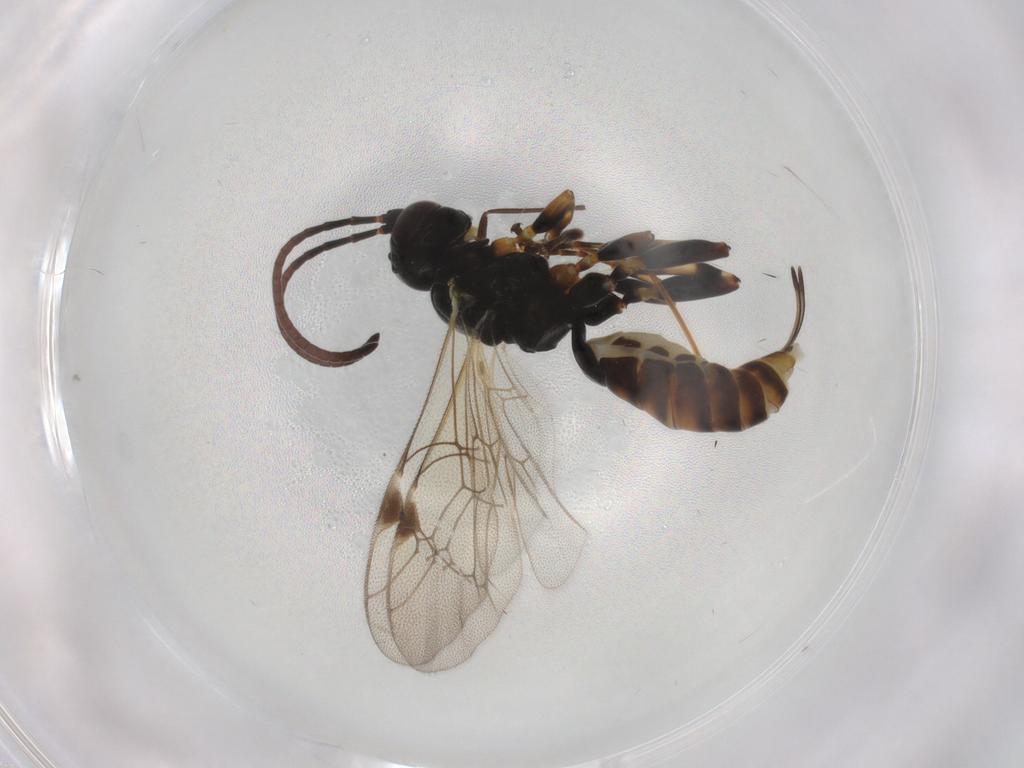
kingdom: Animalia
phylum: Arthropoda
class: Insecta
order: Hymenoptera
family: Ichneumonidae
